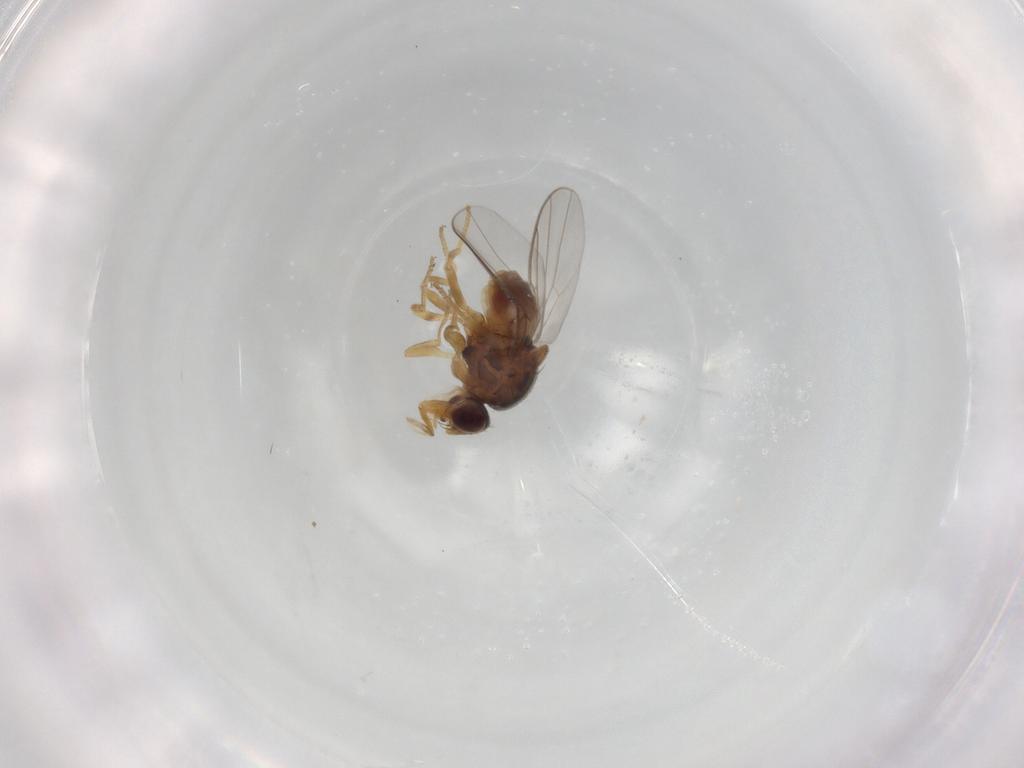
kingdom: Animalia
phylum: Arthropoda
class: Insecta
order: Diptera
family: Chloropidae
